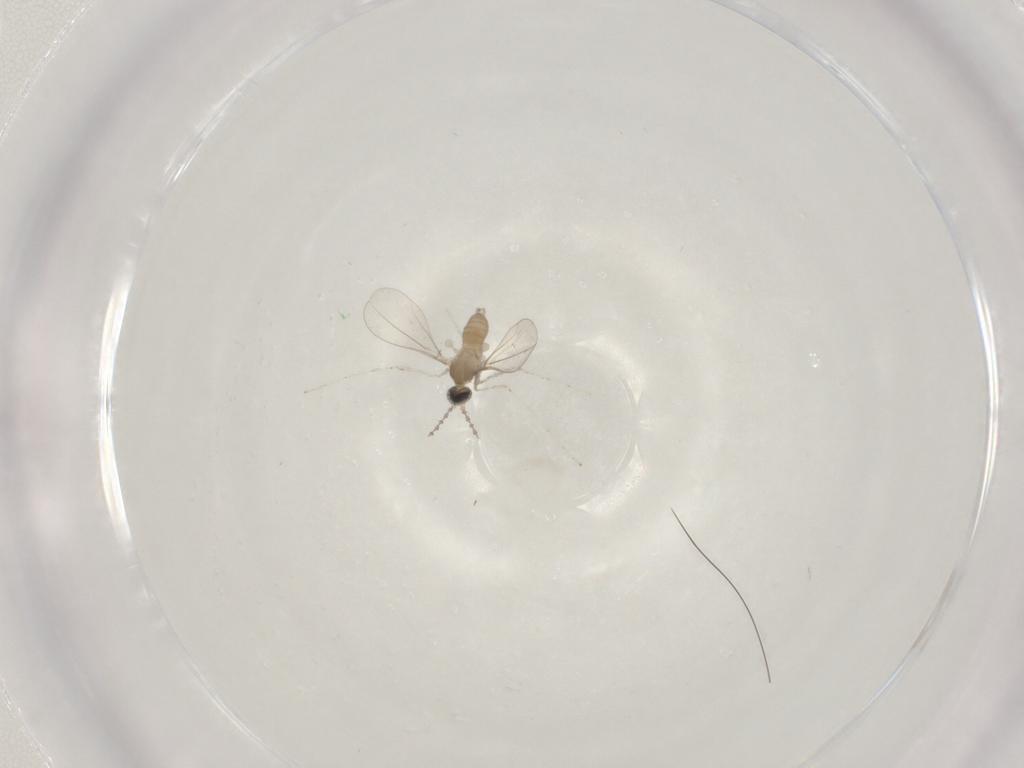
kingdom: Animalia
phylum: Arthropoda
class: Insecta
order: Diptera
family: Cecidomyiidae
